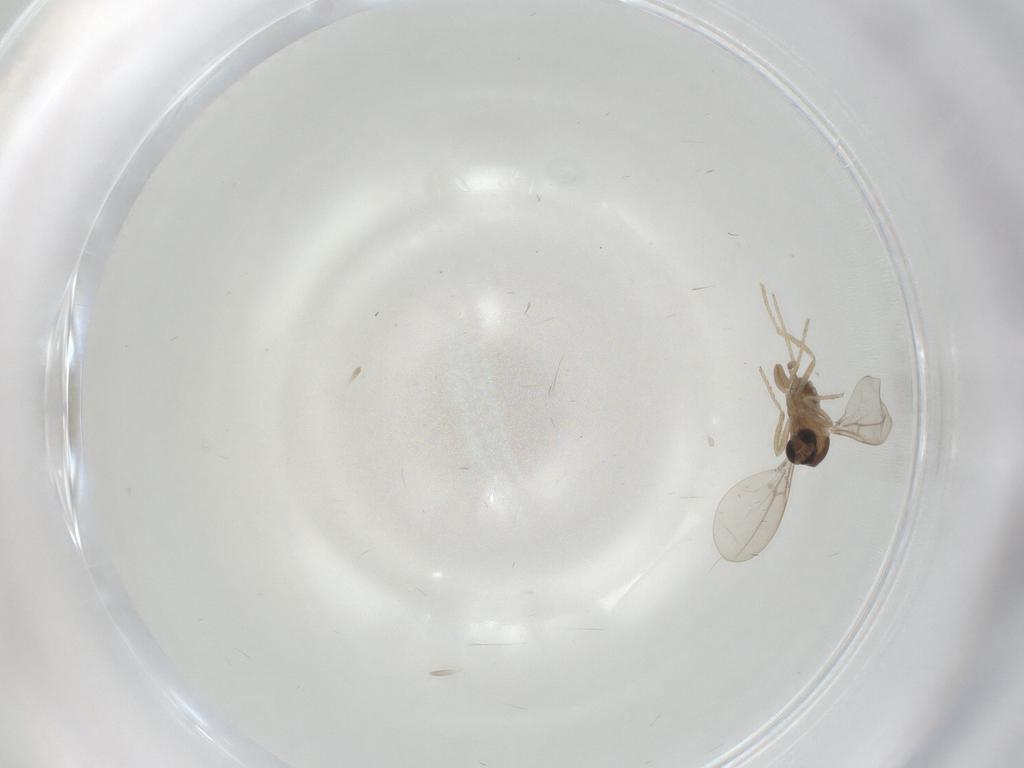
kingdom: Animalia
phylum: Arthropoda
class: Insecta
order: Diptera
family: Cecidomyiidae
